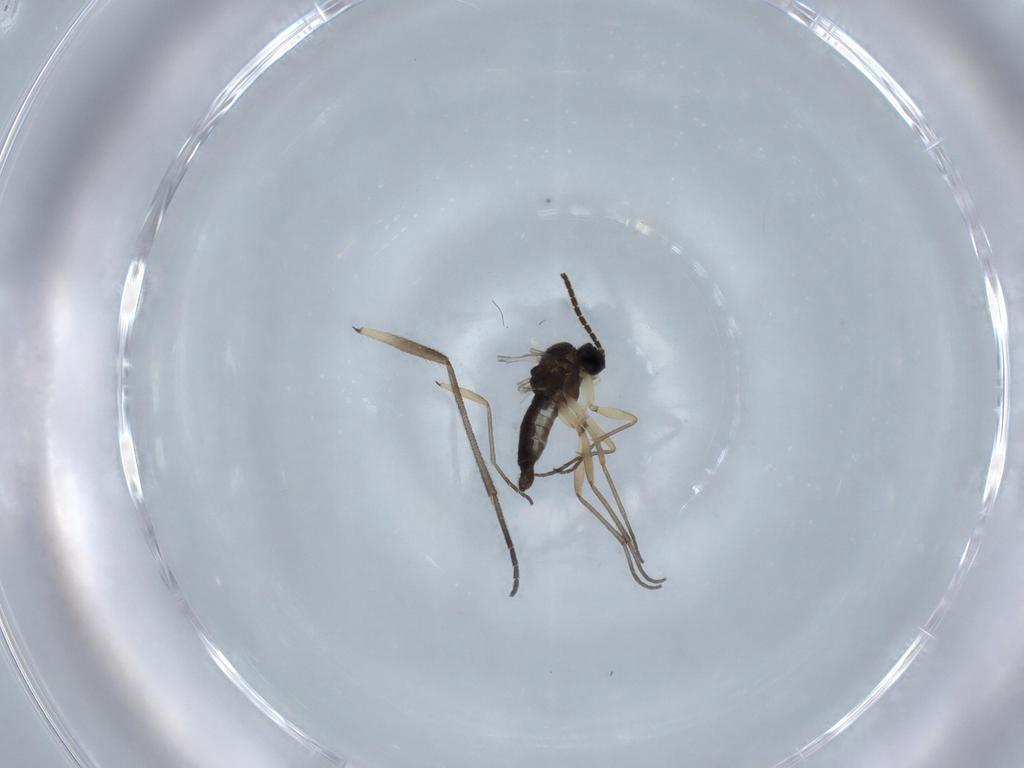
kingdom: Animalia
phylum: Arthropoda
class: Insecta
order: Diptera
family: Sciaridae
